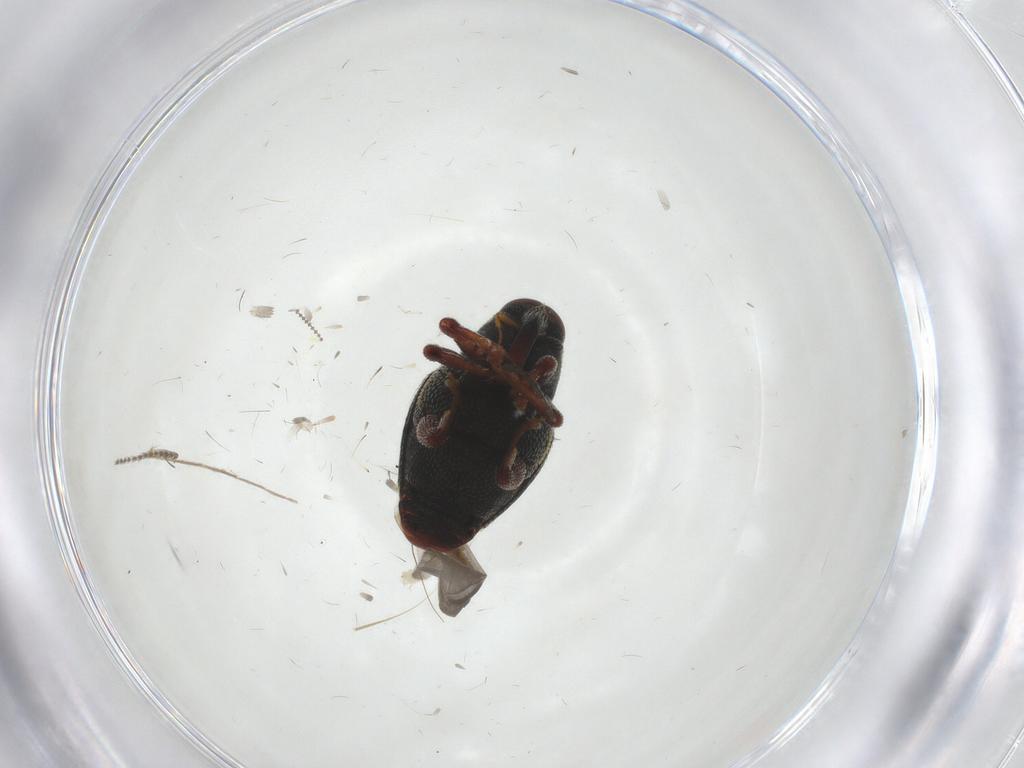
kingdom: Animalia
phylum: Arthropoda
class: Insecta
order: Coleoptera
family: Curculionidae
